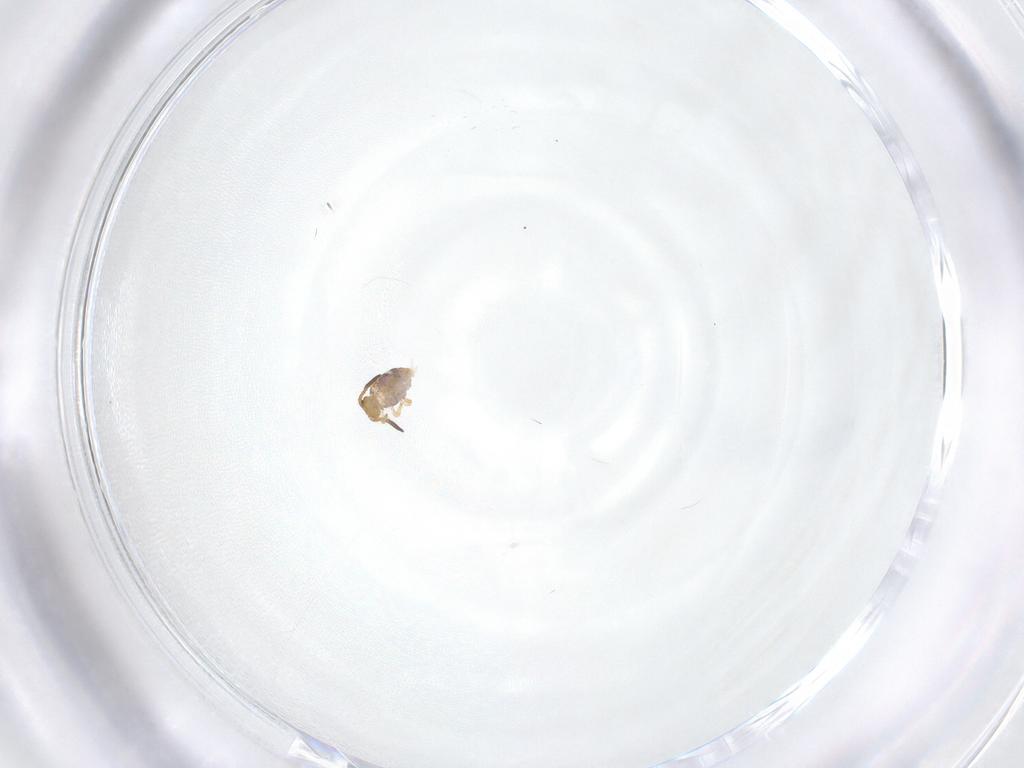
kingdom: Animalia
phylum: Arthropoda
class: Collembola
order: Symphypleona
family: Katiannidae
